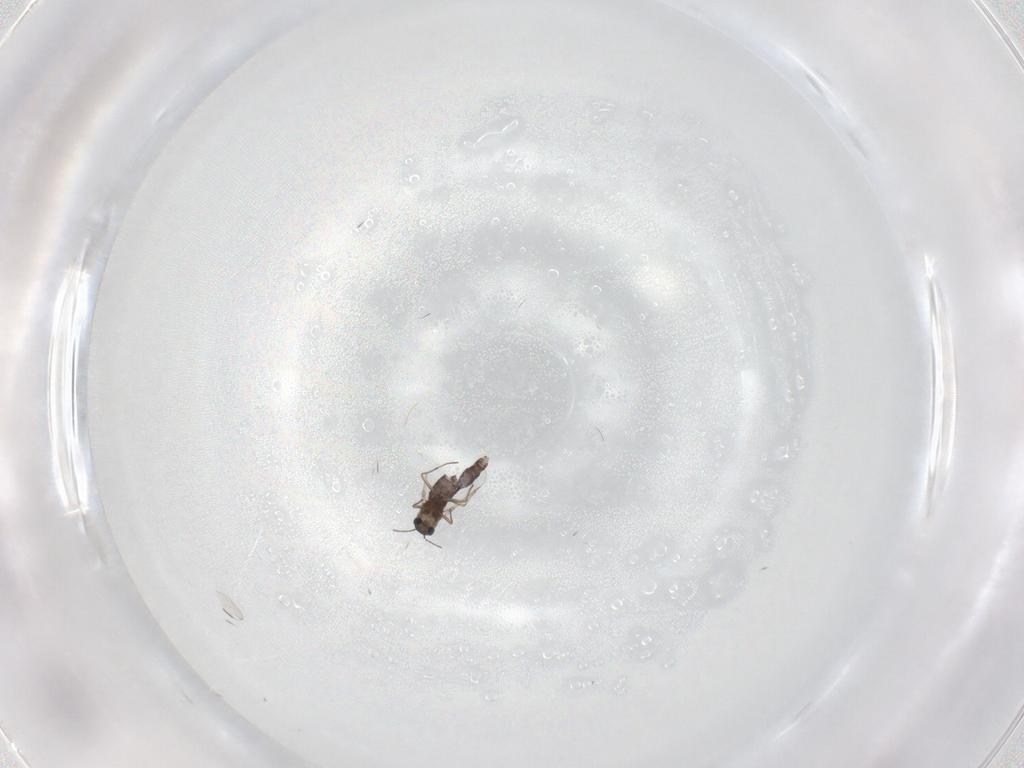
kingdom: Animalia
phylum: Arthropoda
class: Insecta
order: Diptera
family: Chironomidae
